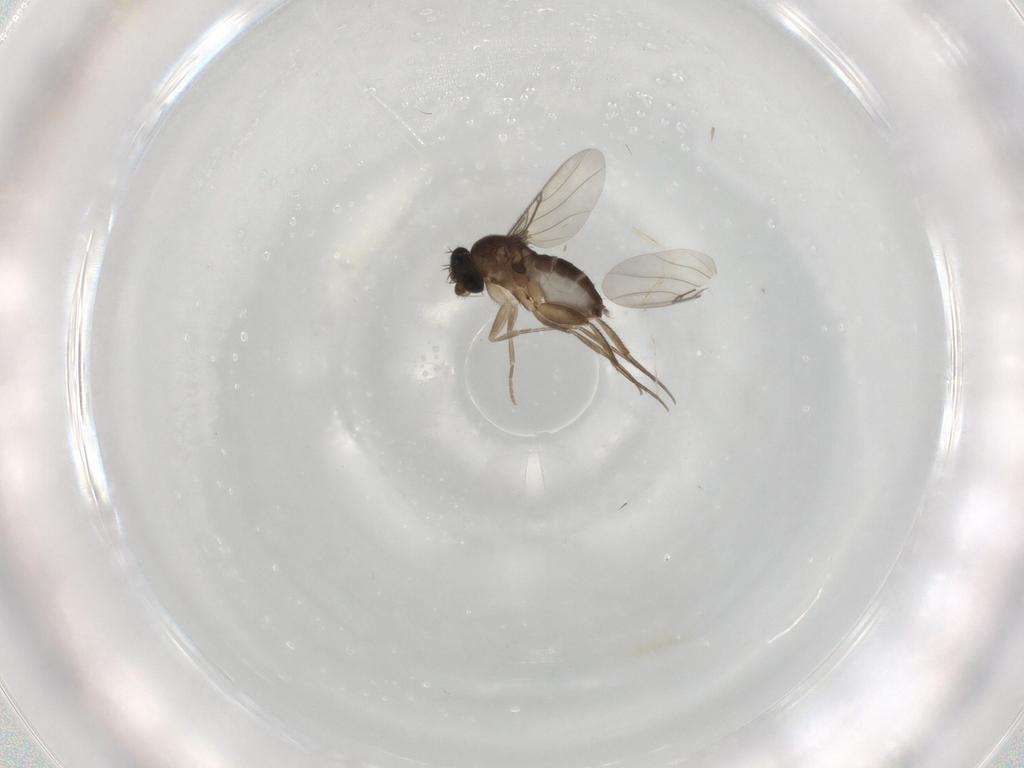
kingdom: Animalia
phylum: Arthropoda
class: Insecta
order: Diptera
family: Phoridae
